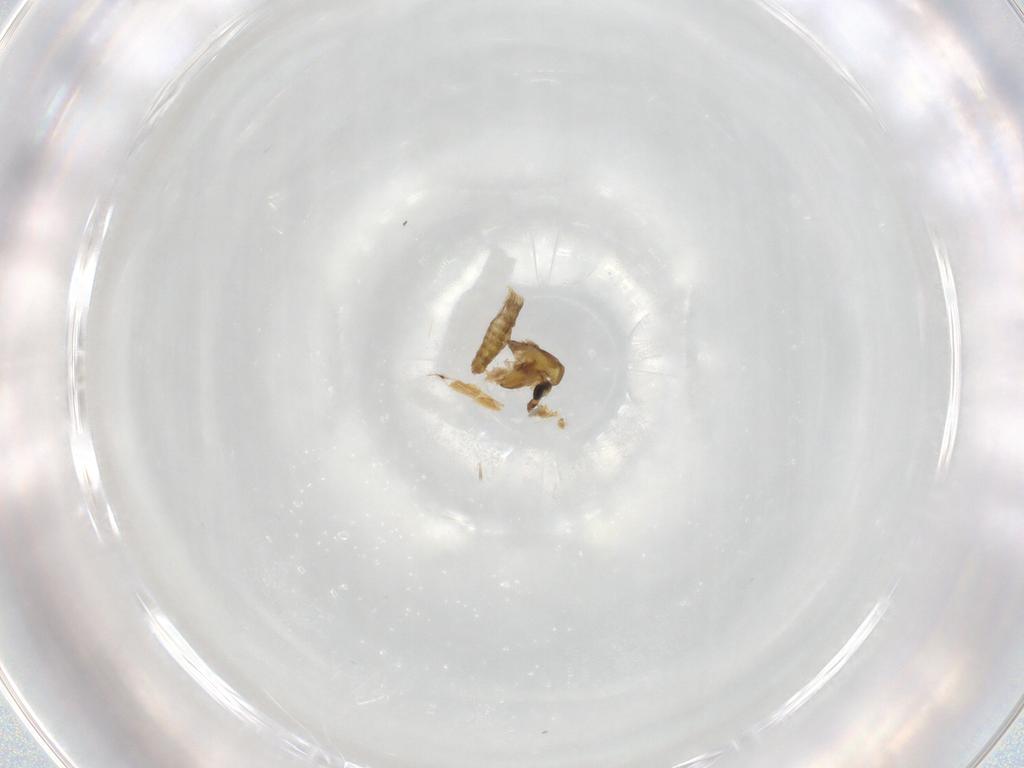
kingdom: Animalia
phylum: Arthropoda
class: Insecta
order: Diptera
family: Chironomidae
